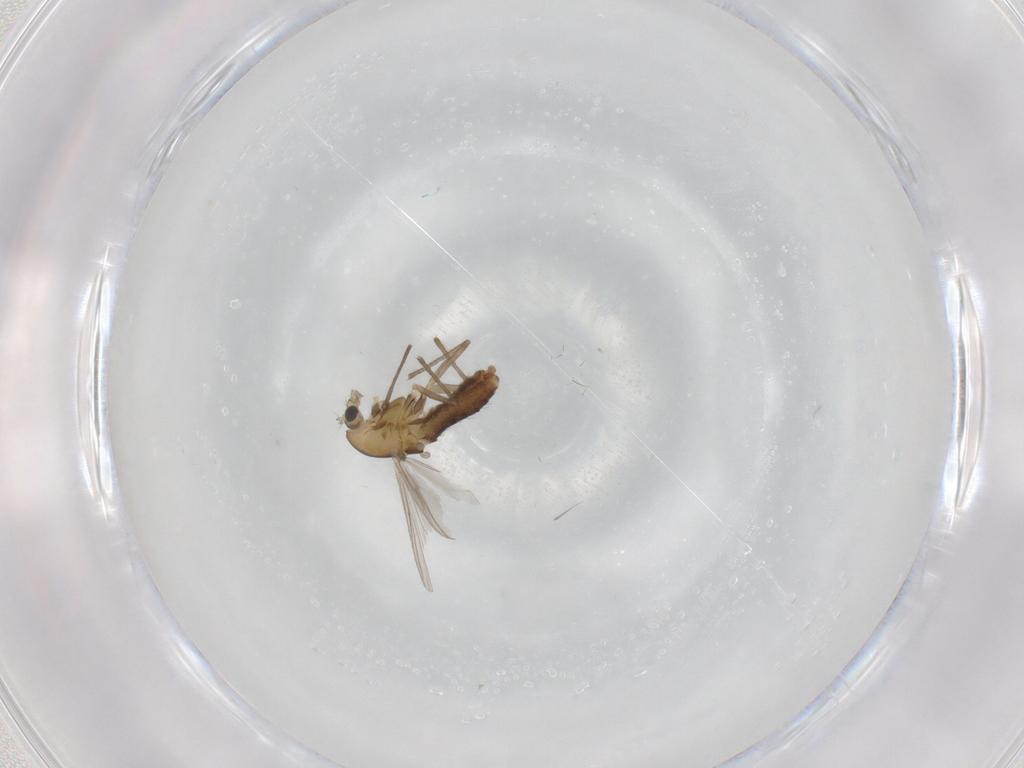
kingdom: Animalia
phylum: Arthropoda
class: Insecta
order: Diptera
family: Chironomidae
